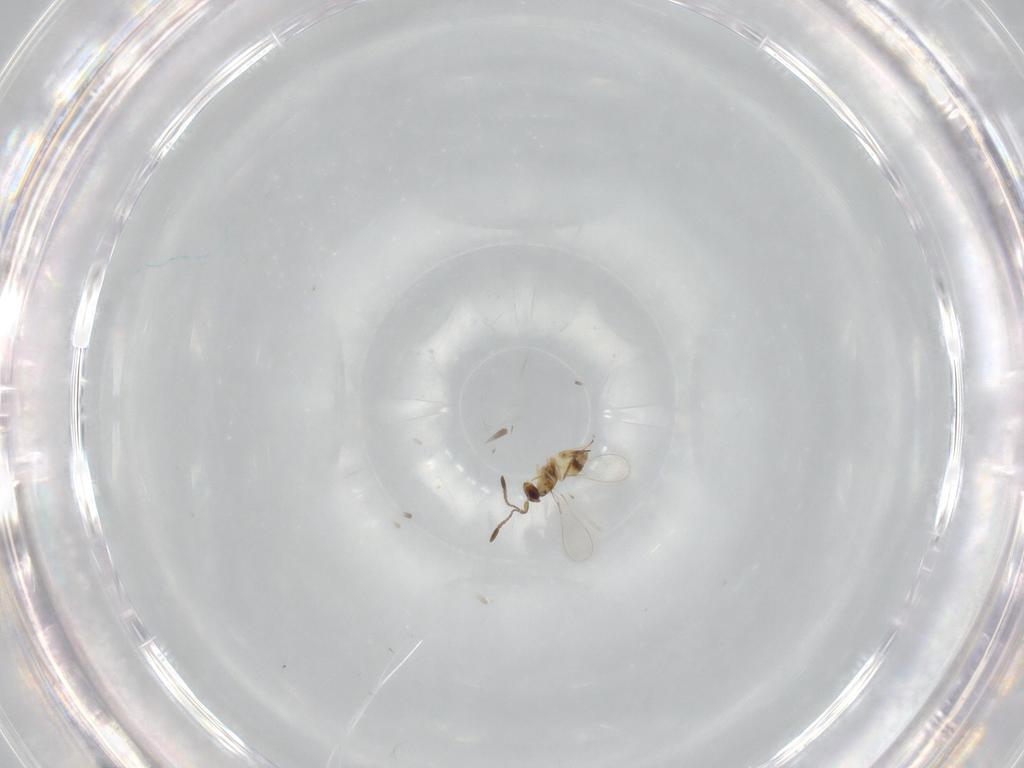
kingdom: Animalia
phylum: Arthropoda
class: Insecta
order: Hymenoptera
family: Mymaridae
